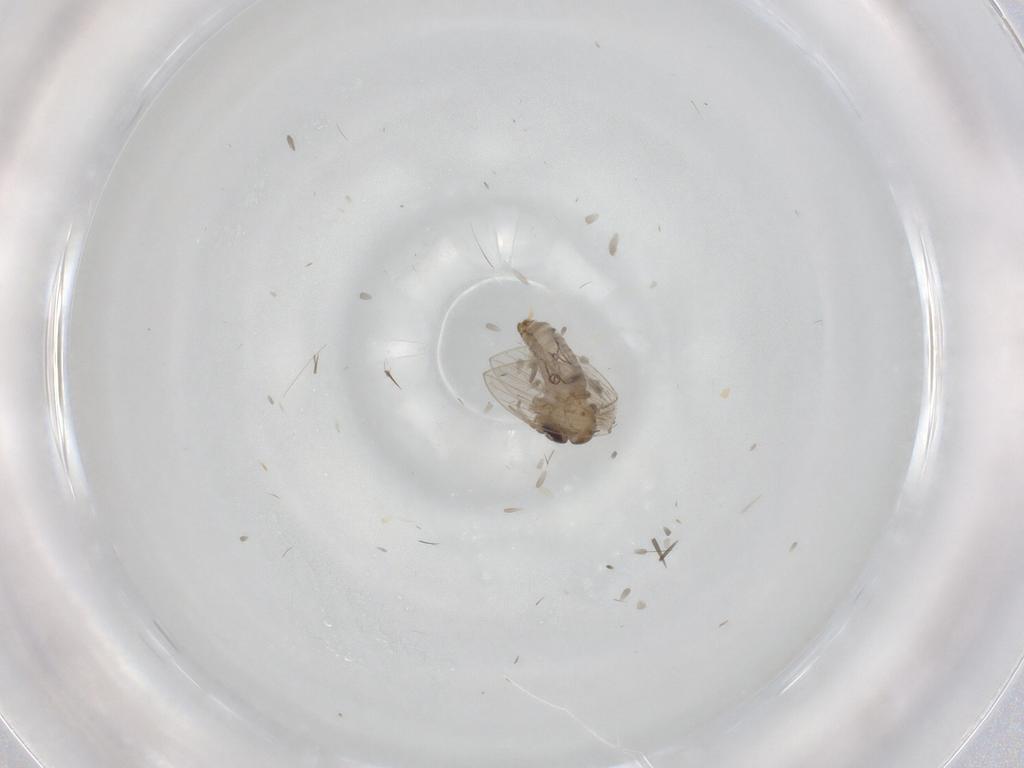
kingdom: Animalia
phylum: Arthropoda
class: Insecta
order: Diptera
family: Psychodidae
